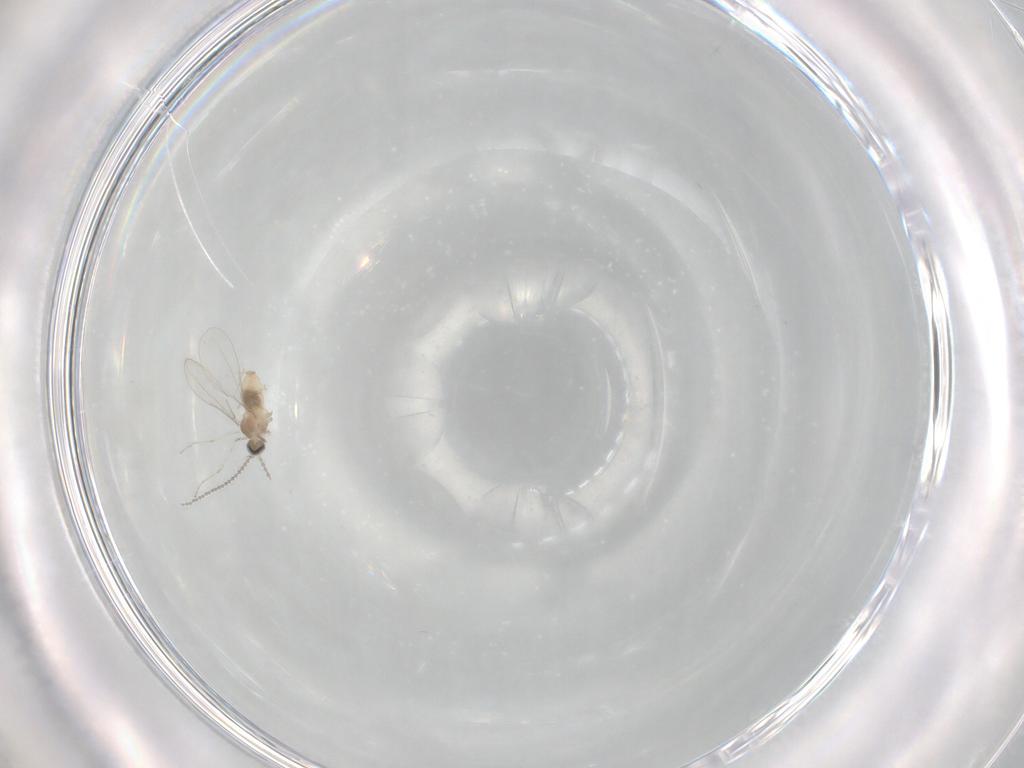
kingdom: Animalia
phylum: Arthropoda
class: Insecta
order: Diptera
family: Cecidomyiidae
